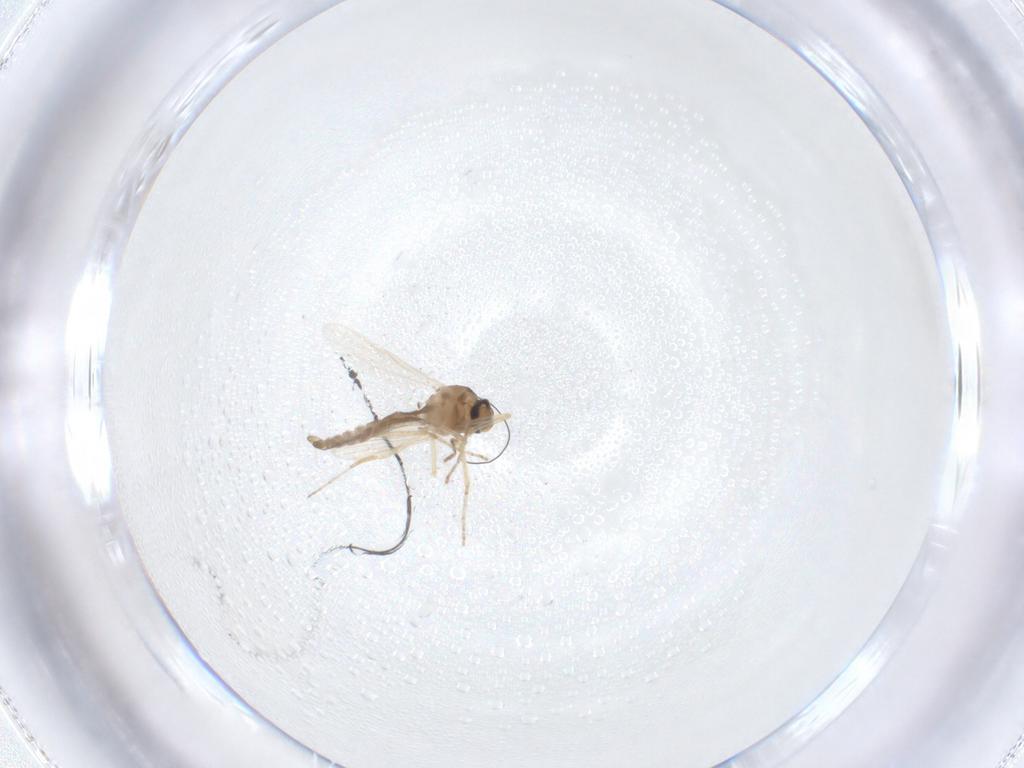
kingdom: Animalia
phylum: Arthropoda
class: Insecta
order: Diptera
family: Ceratopogonidae
